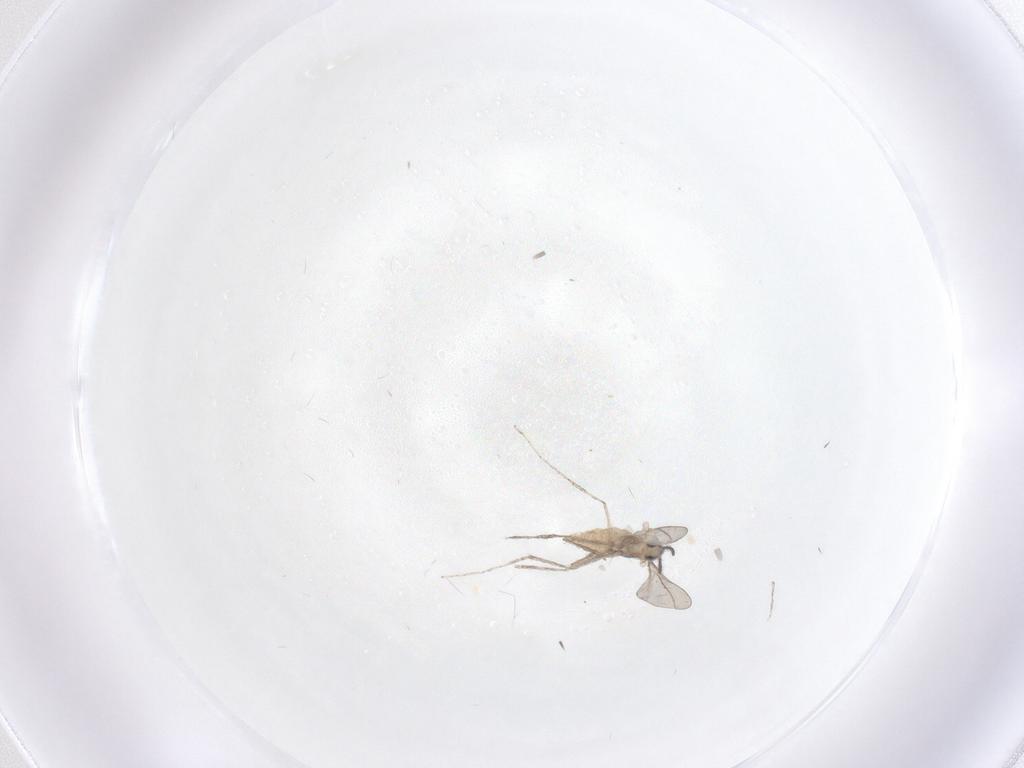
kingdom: Animalia
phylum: Arthropoda
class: Insecta
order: Diptera
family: Cecidomyiidae
